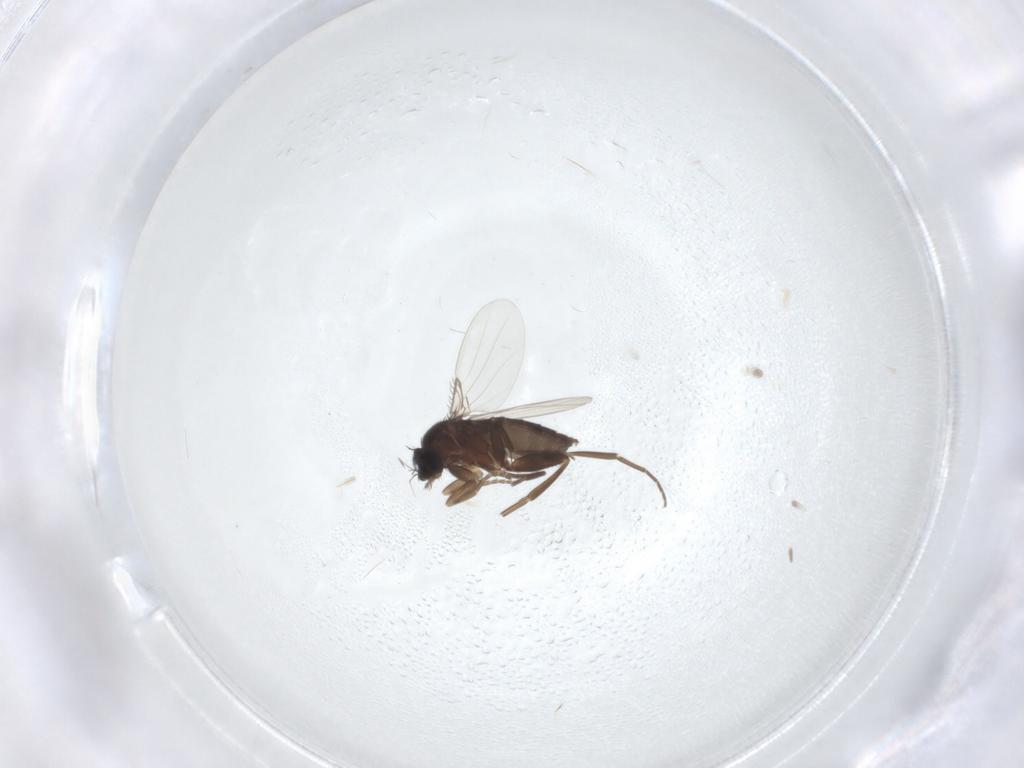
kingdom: Animalia
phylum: Arthropoda
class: Insecta
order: Diptera
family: Phoridae
